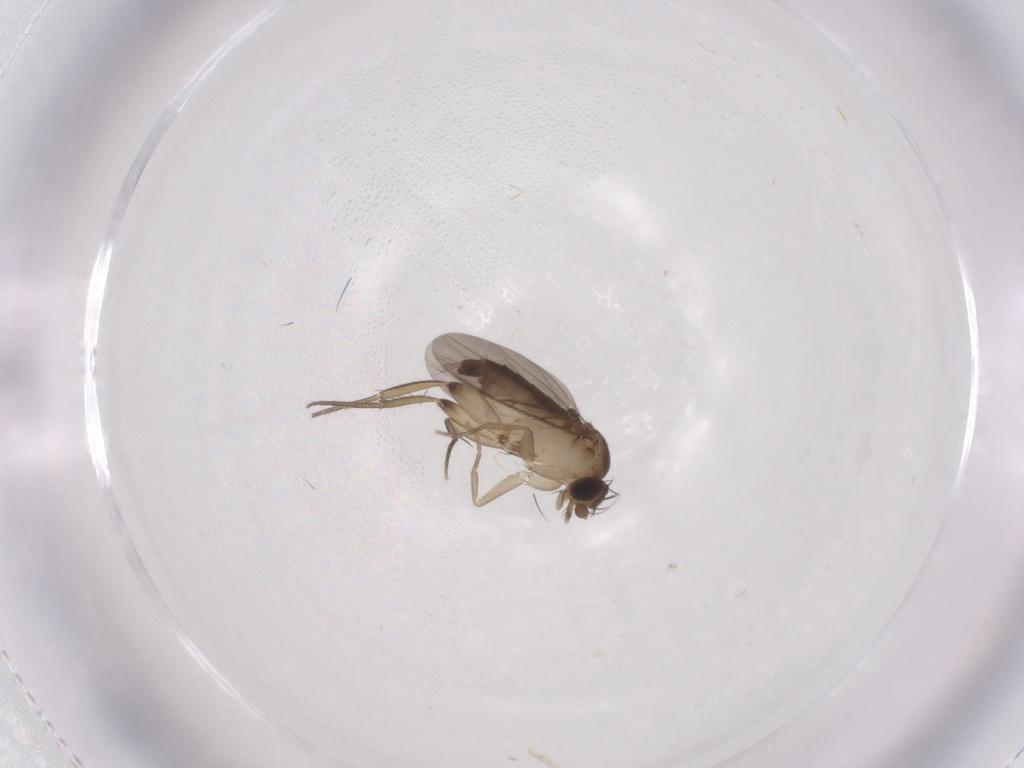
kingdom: Animalia
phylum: Arthropoda
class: Insecta
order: Diptera
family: Phoridae
